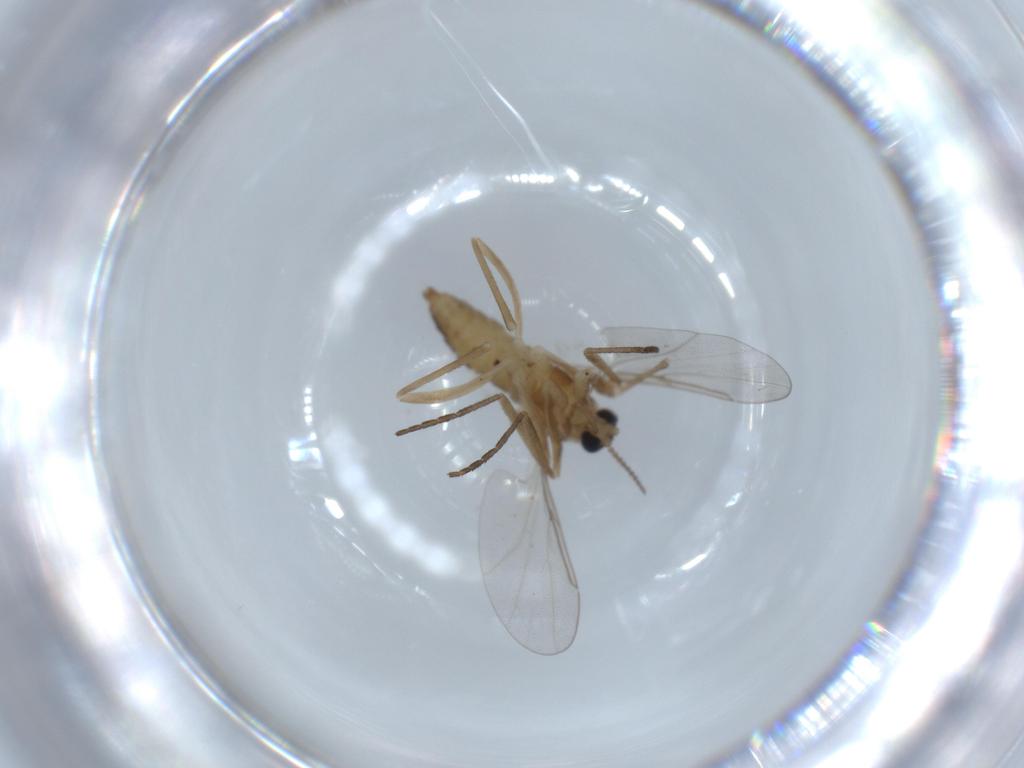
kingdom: Animalia
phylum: Arthropoda
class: Insecta
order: Diptera
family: Cecidomyiidae
